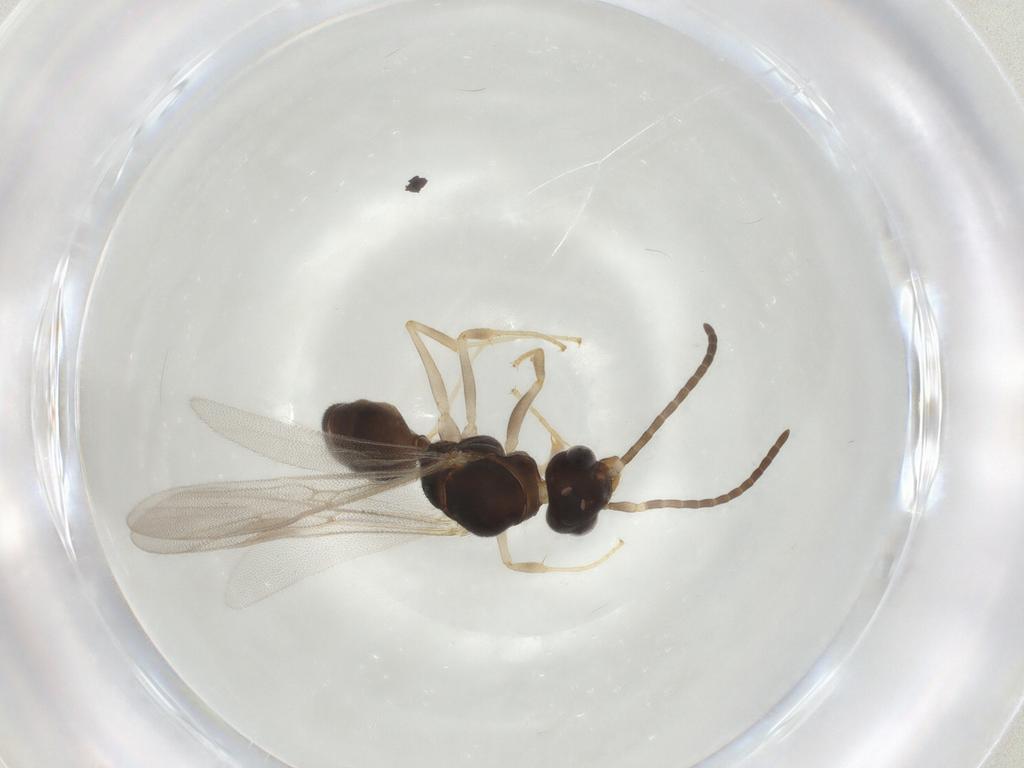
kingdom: Animalia
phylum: Arthropoda
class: Insecta
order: Hymenoptera
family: Formicidae
